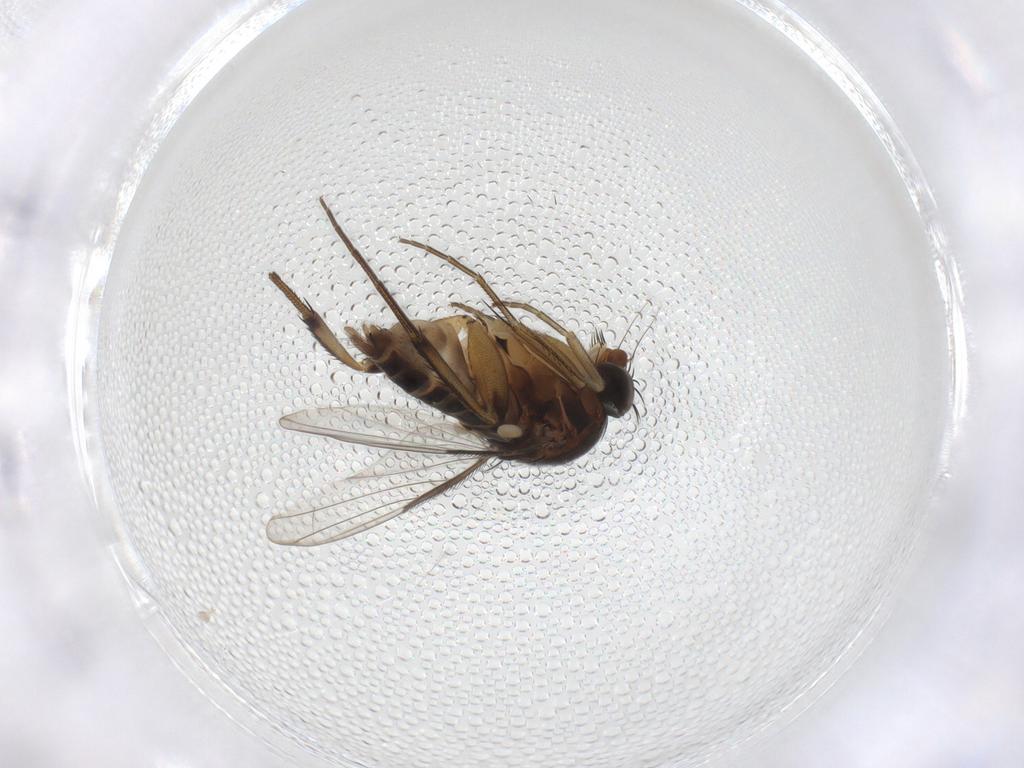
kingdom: Animalia
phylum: Arthropoda
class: Insecta
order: Diptera
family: Phoridae
